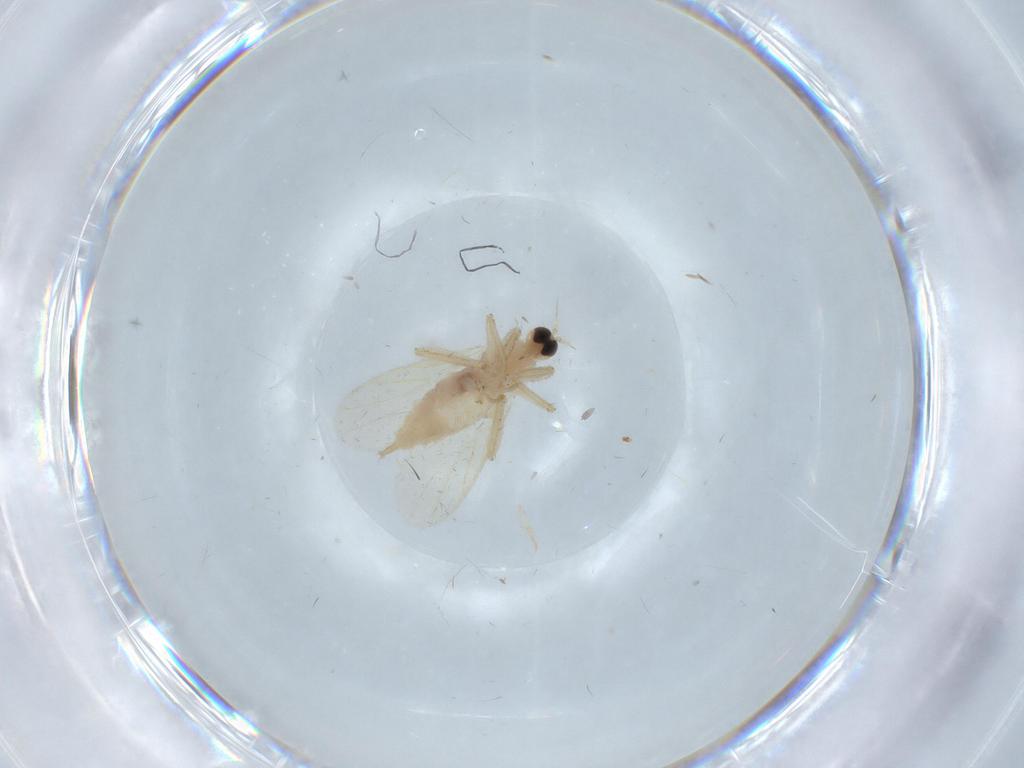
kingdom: Animalia
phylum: Arthropoda
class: Insecta
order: Diptera
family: Hybotidae
